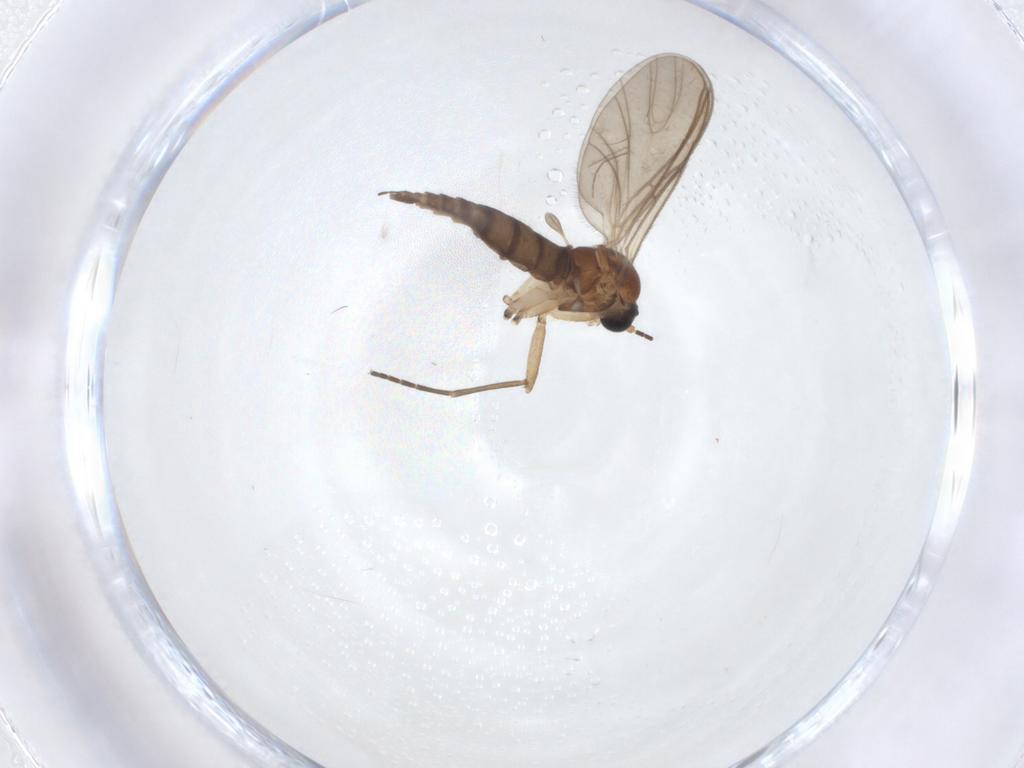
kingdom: Animalia
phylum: Arthropoda
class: Insecta
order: Diptera
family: Sciaridae
